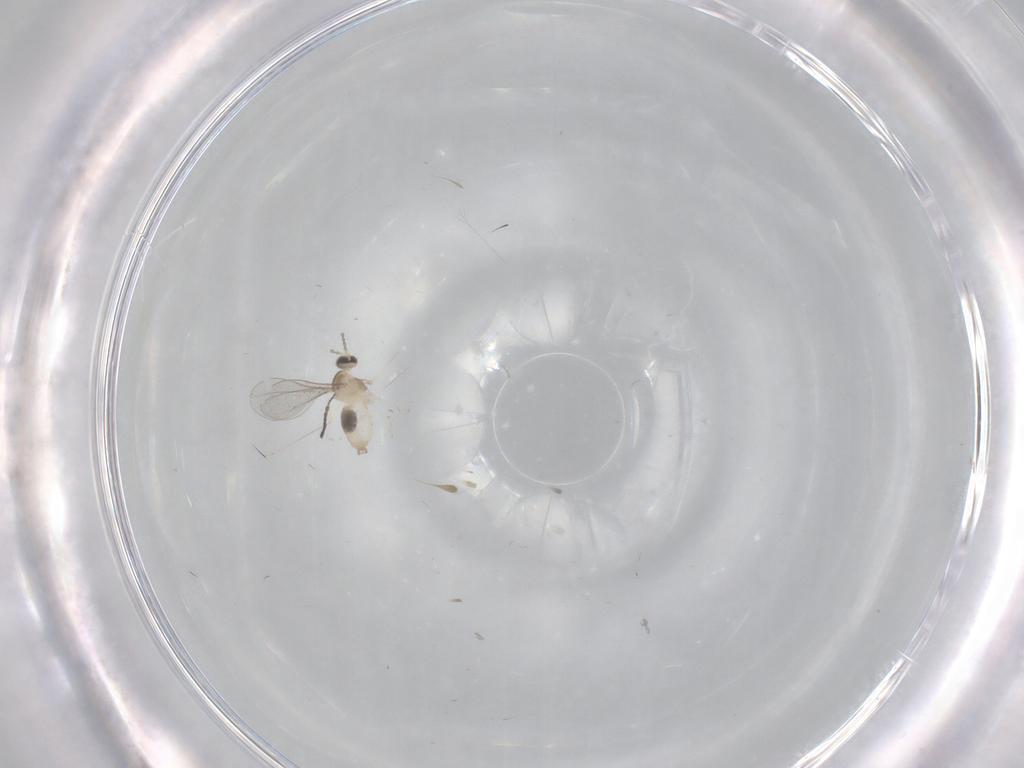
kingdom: Animalia
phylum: Arthropoda
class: Insecta
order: Diptera
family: Cecidomyiidae
